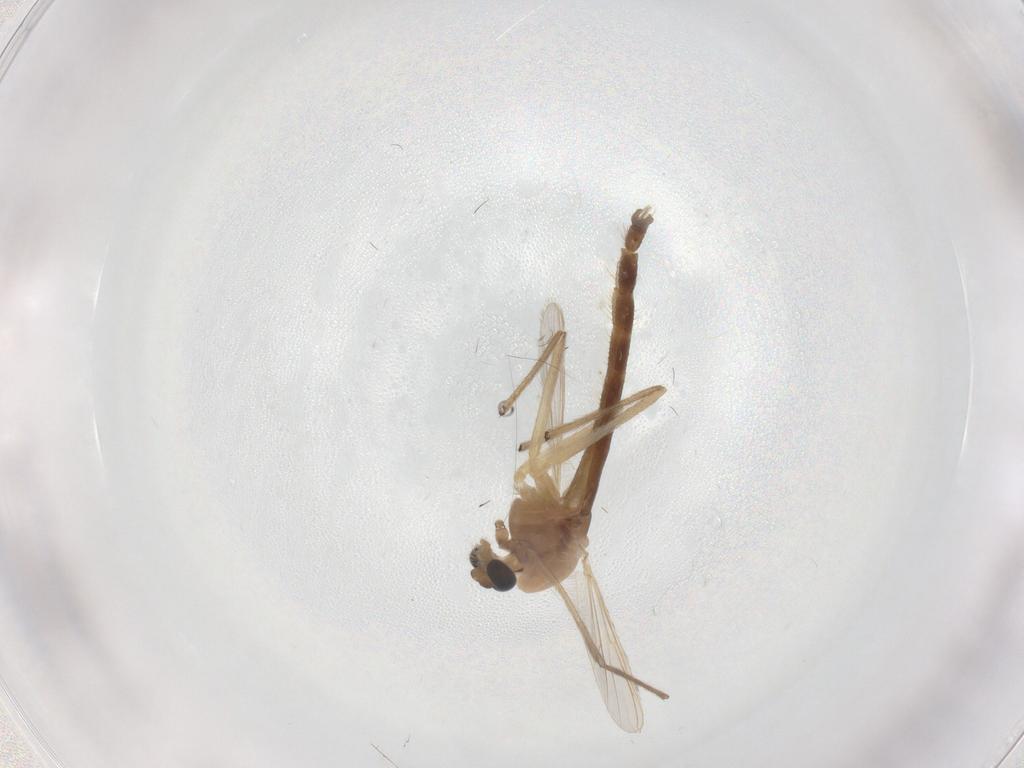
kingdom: Animalia
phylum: Arthropoda
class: Insecta
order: Diptera
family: Chironomidae
